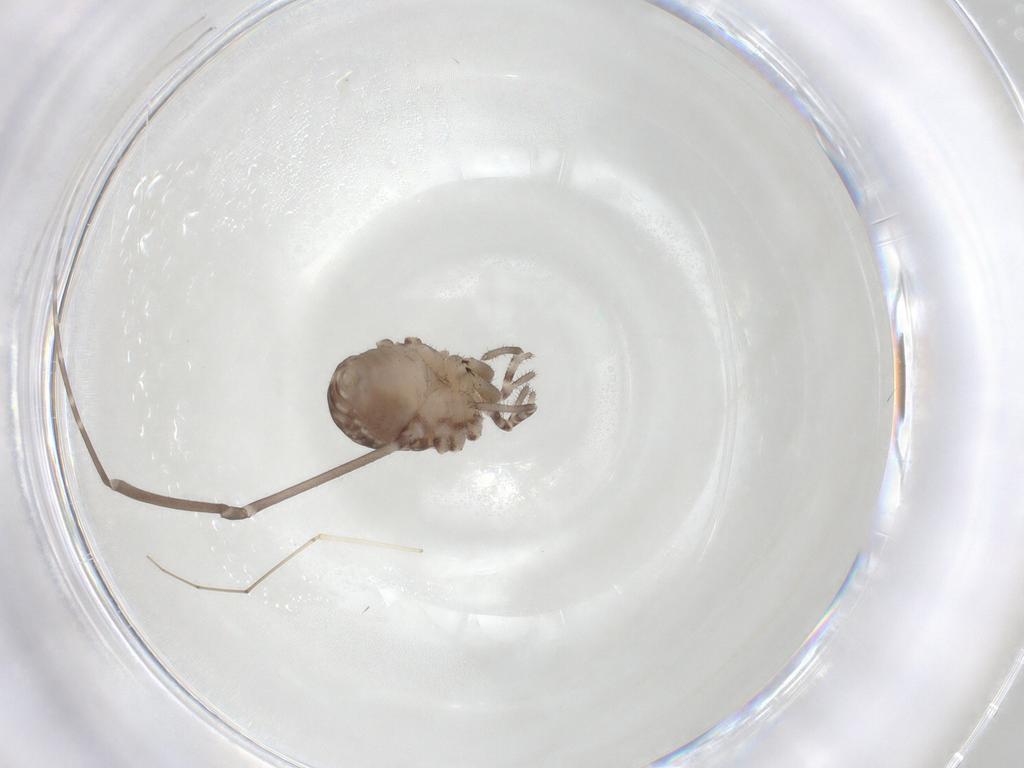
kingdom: Animalia
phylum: Arthropoda
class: Arachnida
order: Opiliones
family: Sclerosomatidae
